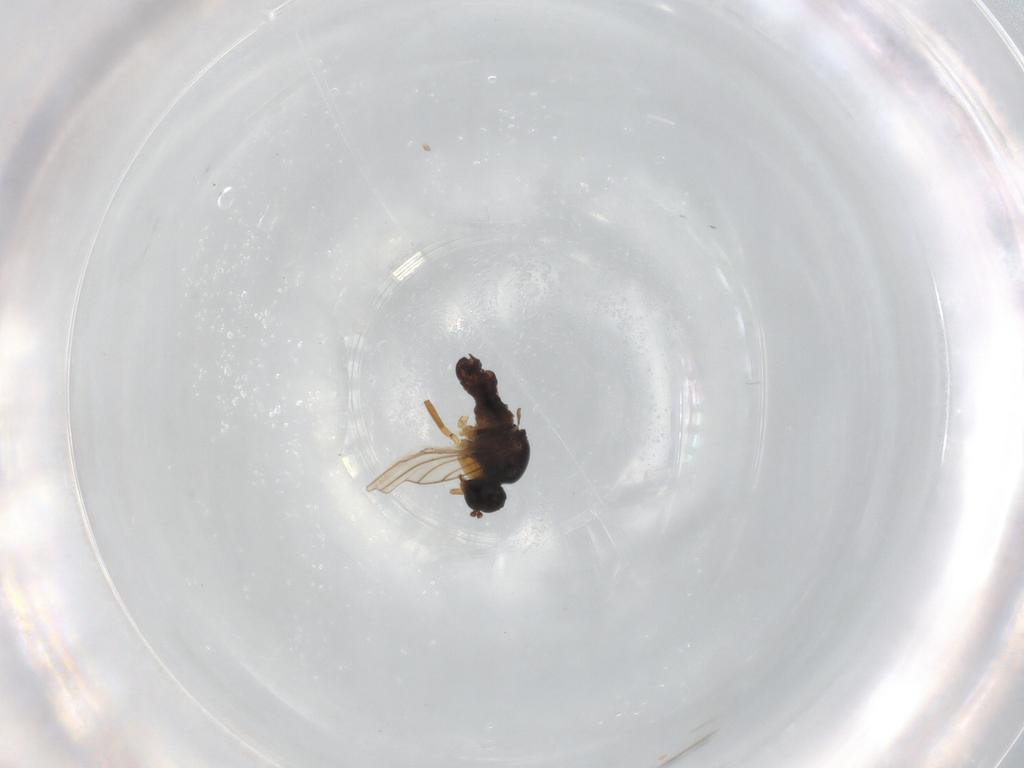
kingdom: Animalia
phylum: Arthropoda
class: Insecta
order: Diptera
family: Hybotidae
